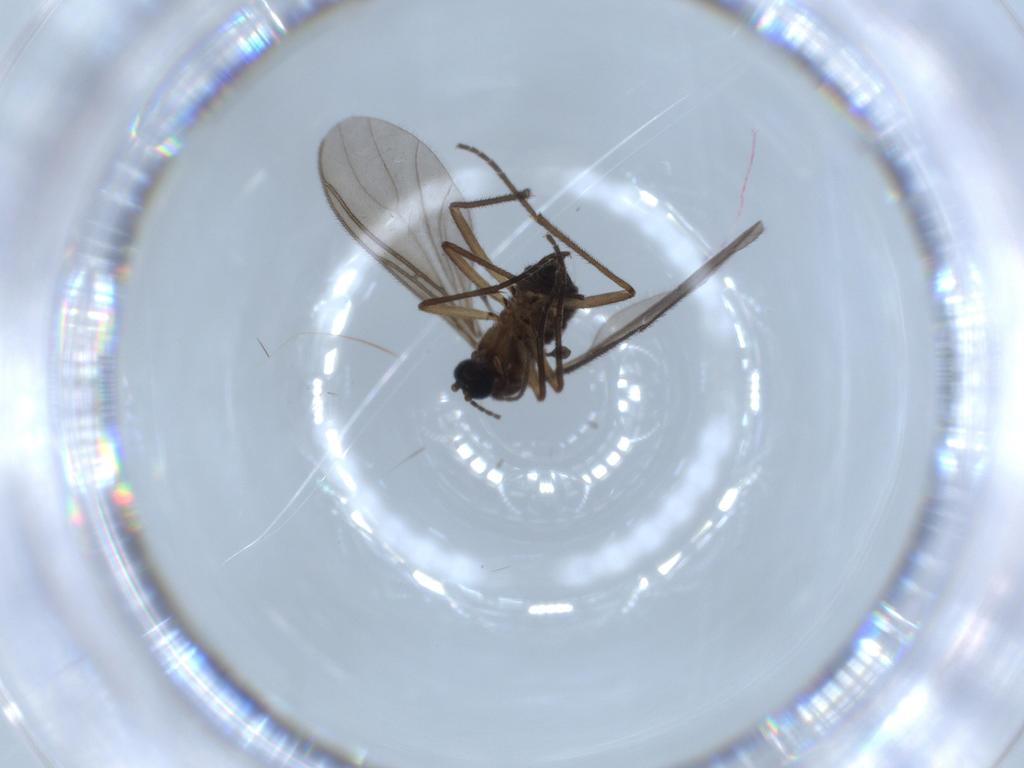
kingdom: Animalia
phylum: Arthropoda
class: Insecta
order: Diptera
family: Sciaridae
